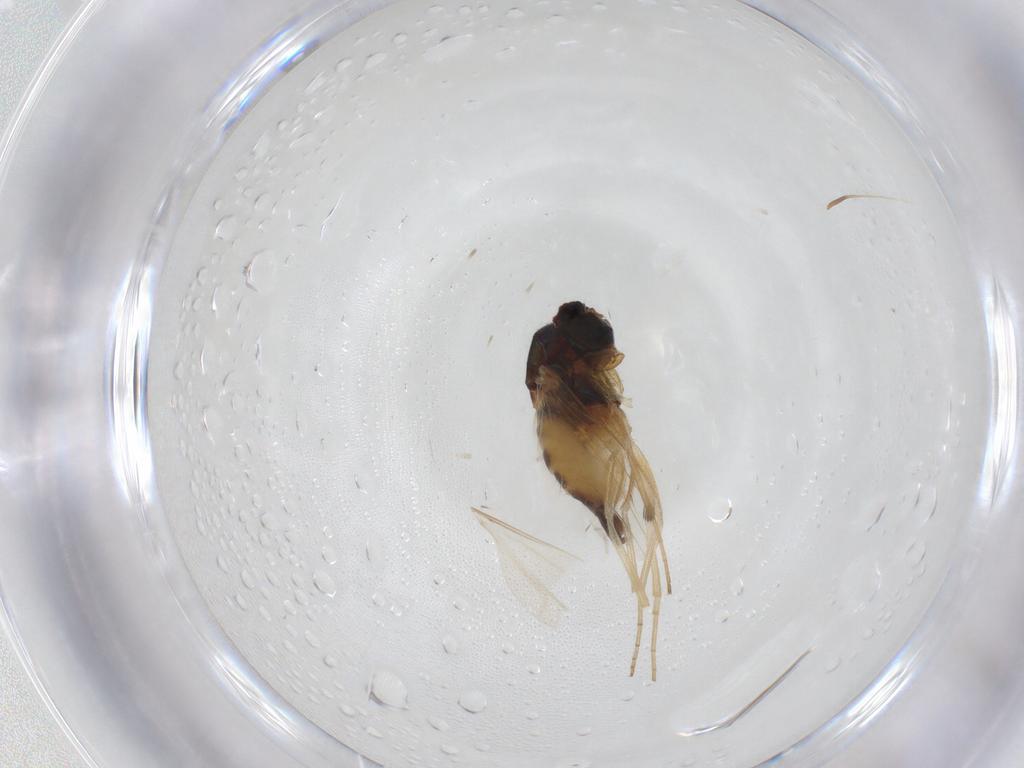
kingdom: Animalia
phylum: Arthropoda
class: Insecta
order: Diptera
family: Dolichopodidae
